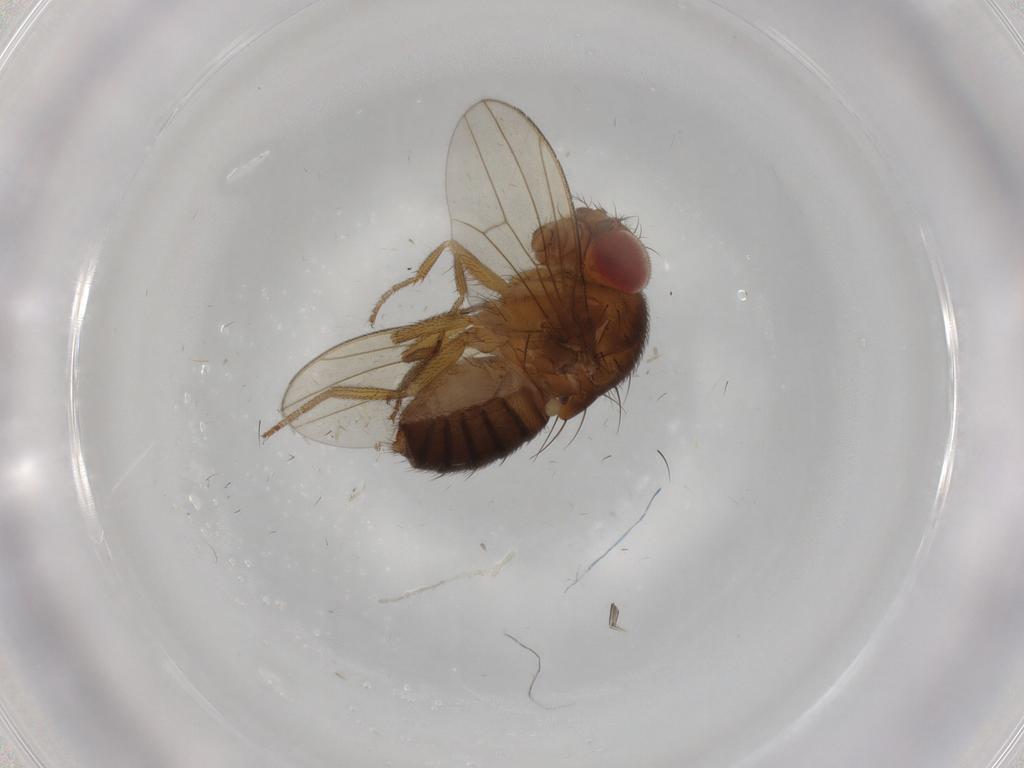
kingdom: Animalia
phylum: Arthropoda
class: Insecta
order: Diptera
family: Drosophilidae
